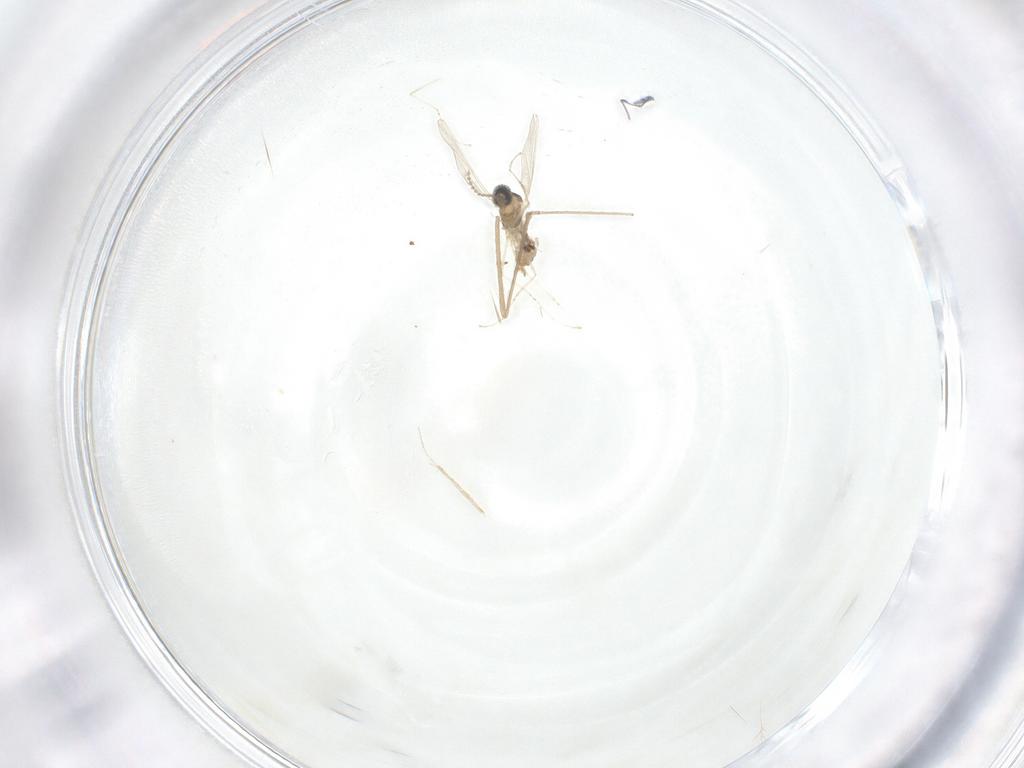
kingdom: Animalia
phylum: Arthropoda
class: Insecta
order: Diptera
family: Cecidomyiidae
